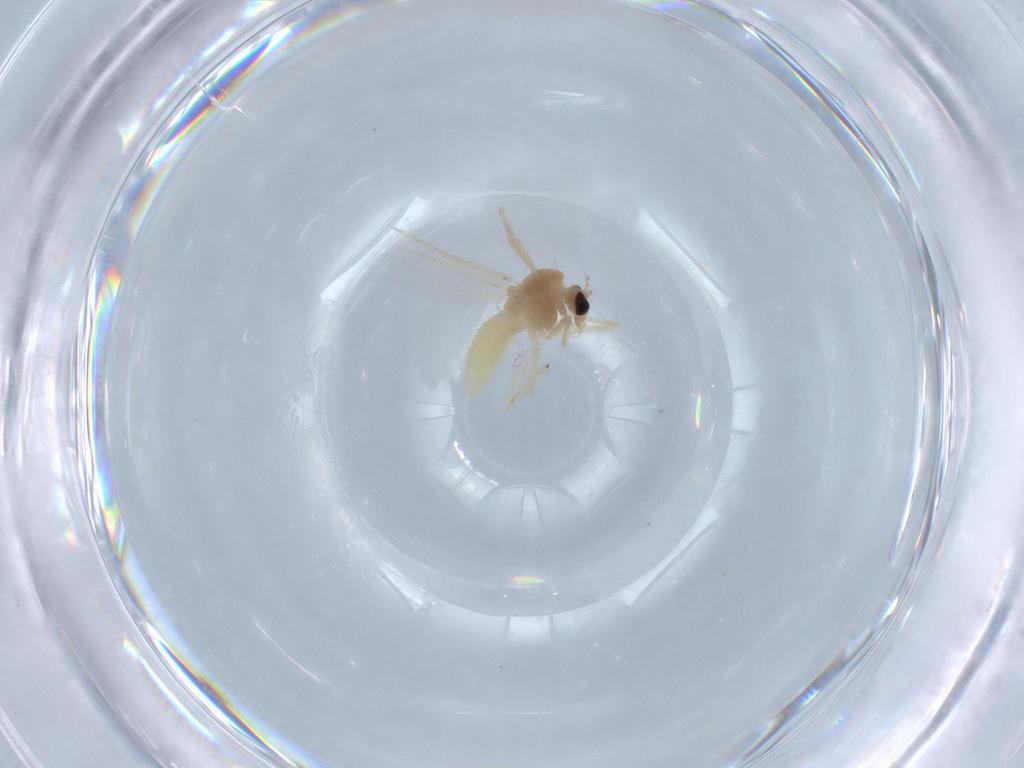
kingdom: Animalia
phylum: Arthropoda
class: Insecta
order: Diptera
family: Chironomidae
